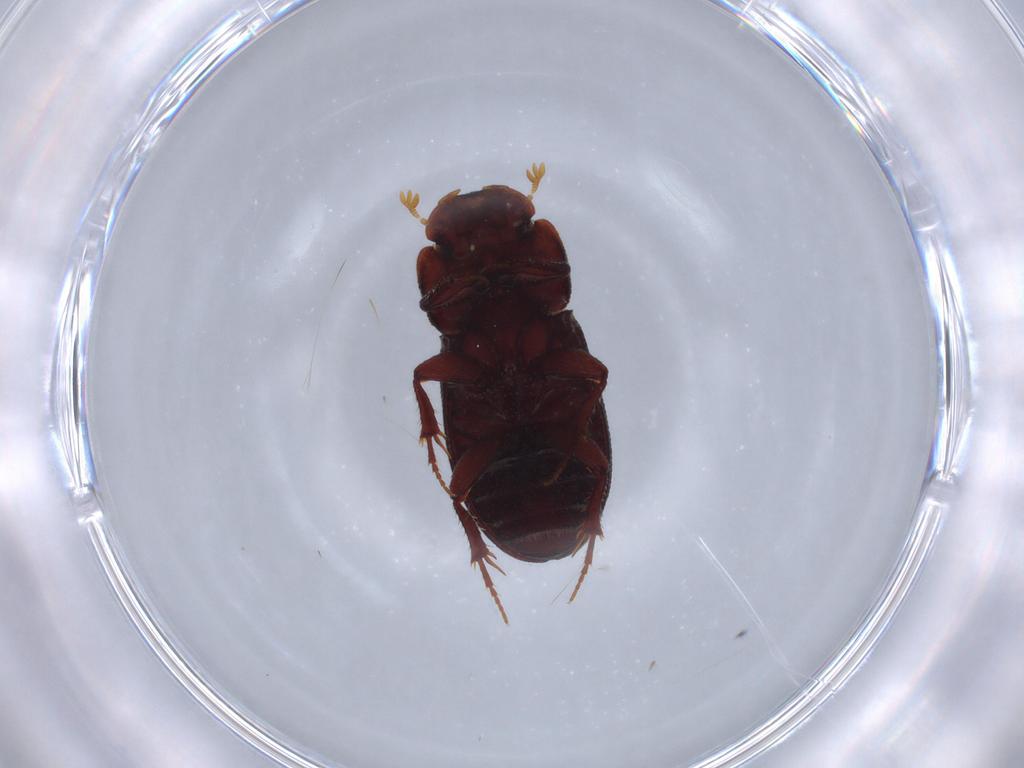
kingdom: Animalia
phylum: Arthropoda
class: Insecta
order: Coleoptera
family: Scarabaeidae
